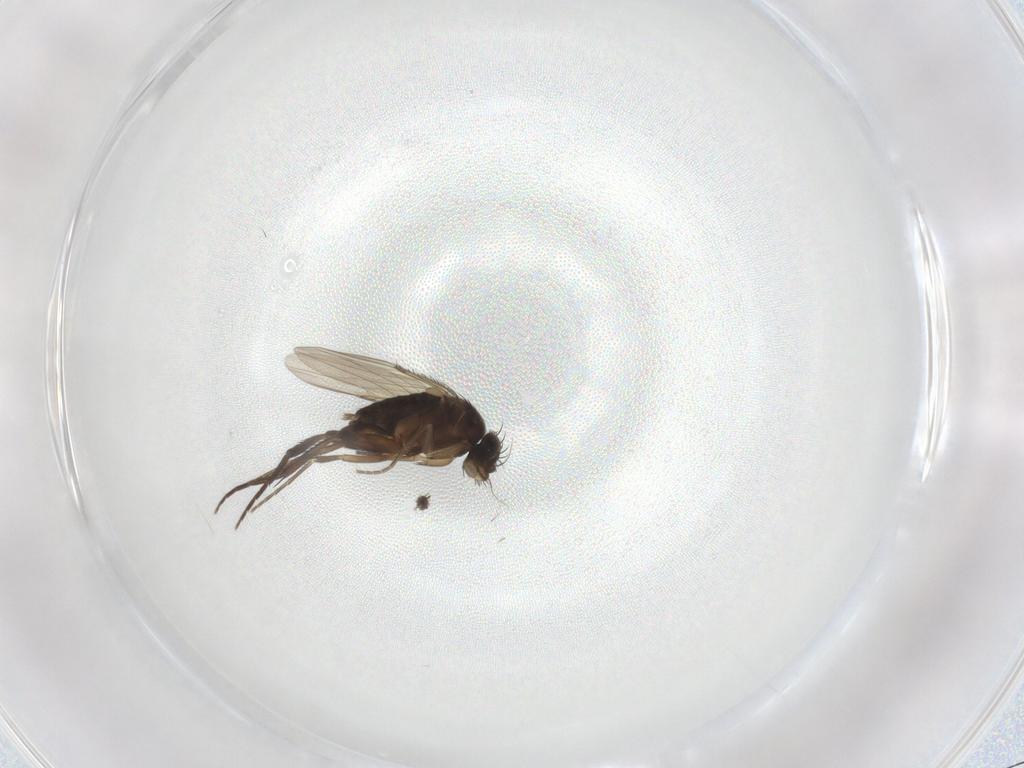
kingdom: Animalia
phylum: Arthropoda
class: Insecta
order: Diptera
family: Phoridae
